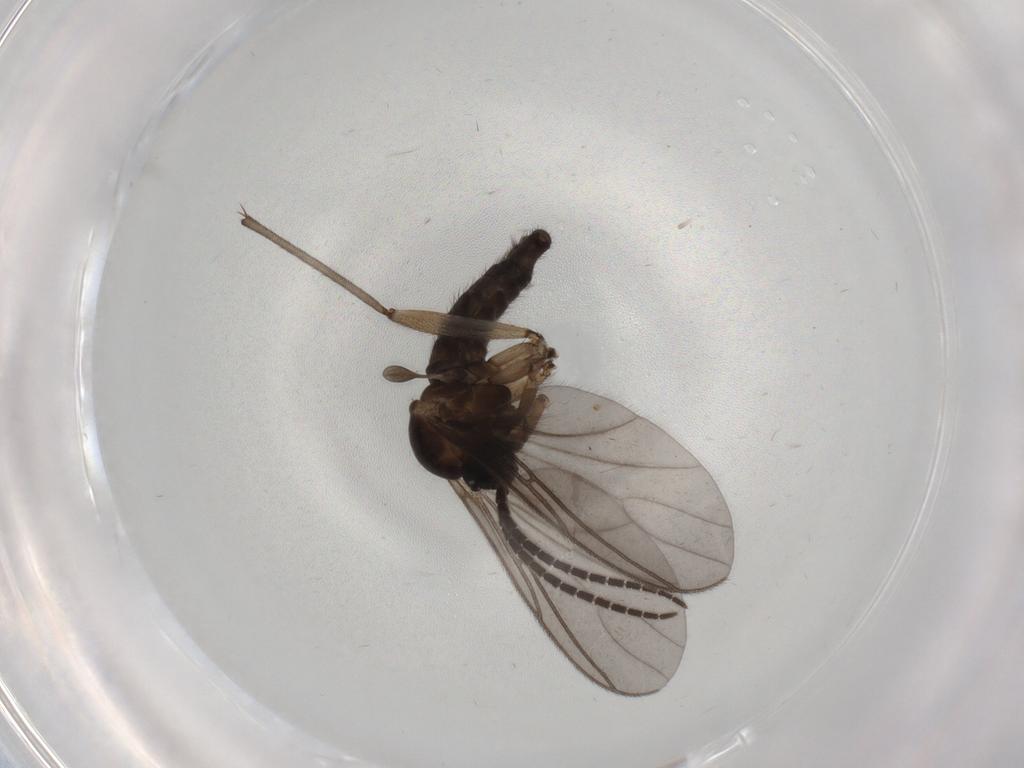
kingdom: Animalia
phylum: Arthropoda
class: Insecta
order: Diptera
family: Sciaridae
